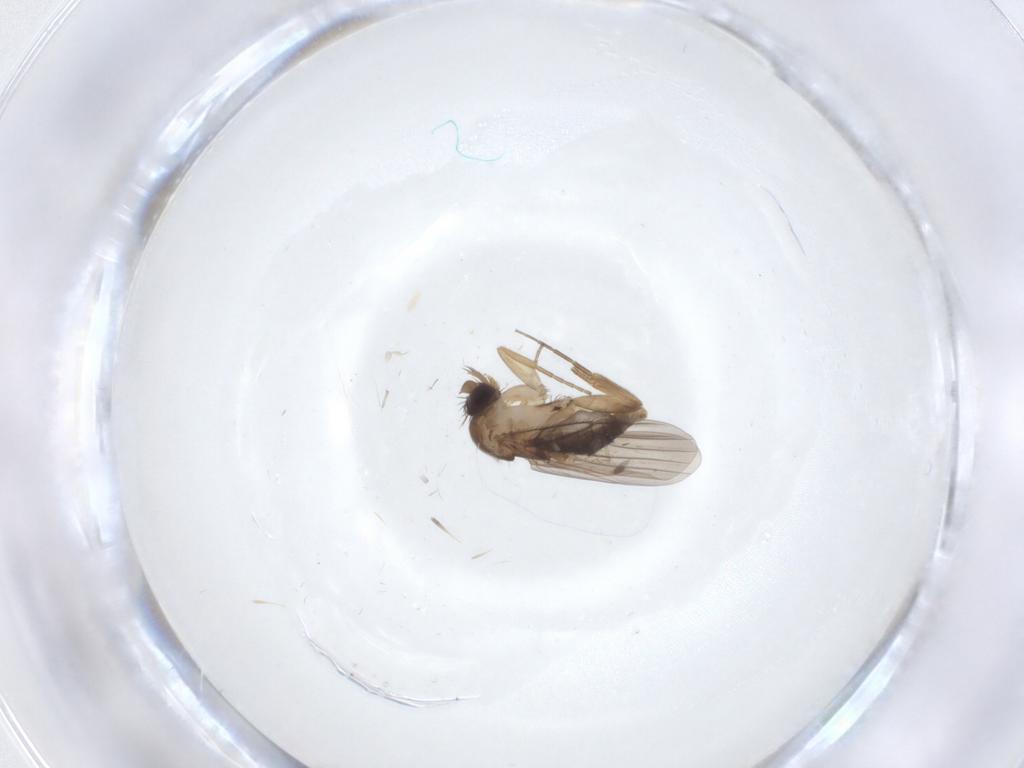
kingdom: Animalia
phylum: Arthropoda
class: Insecta
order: Diptera
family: Phoridae
